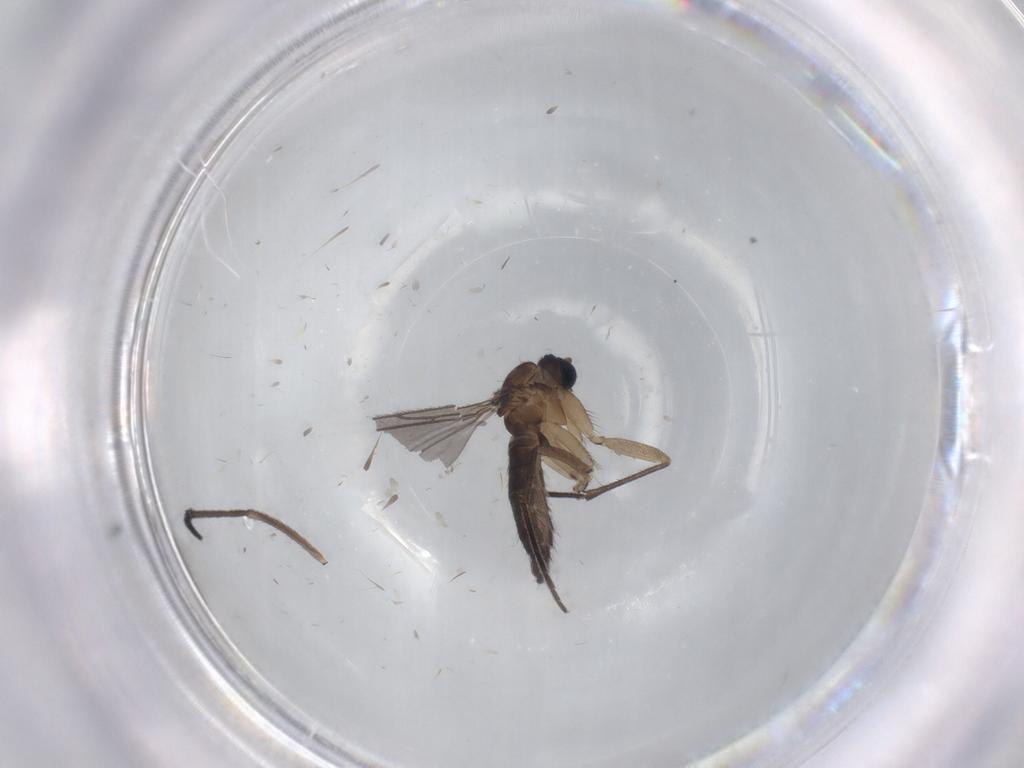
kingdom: Animalia
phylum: Arthropoda
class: Insecta
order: Diptera
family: Sciaridae
